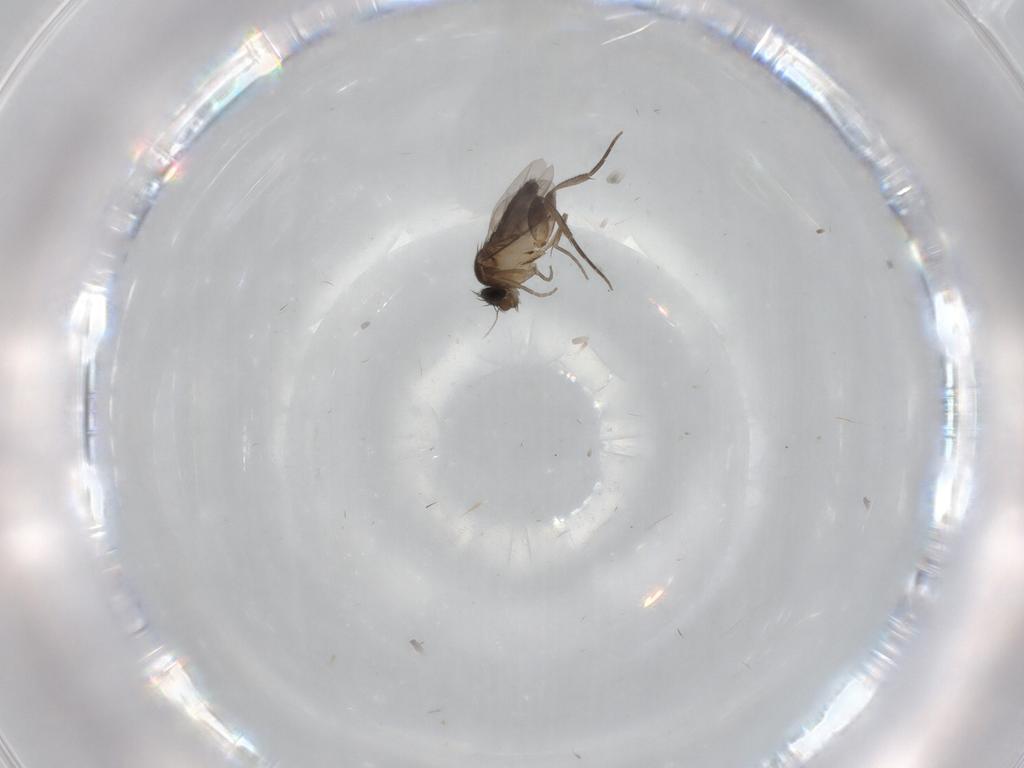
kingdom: Animalia
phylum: Arthropoda
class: Insecta
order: Diptera
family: Phoridae
